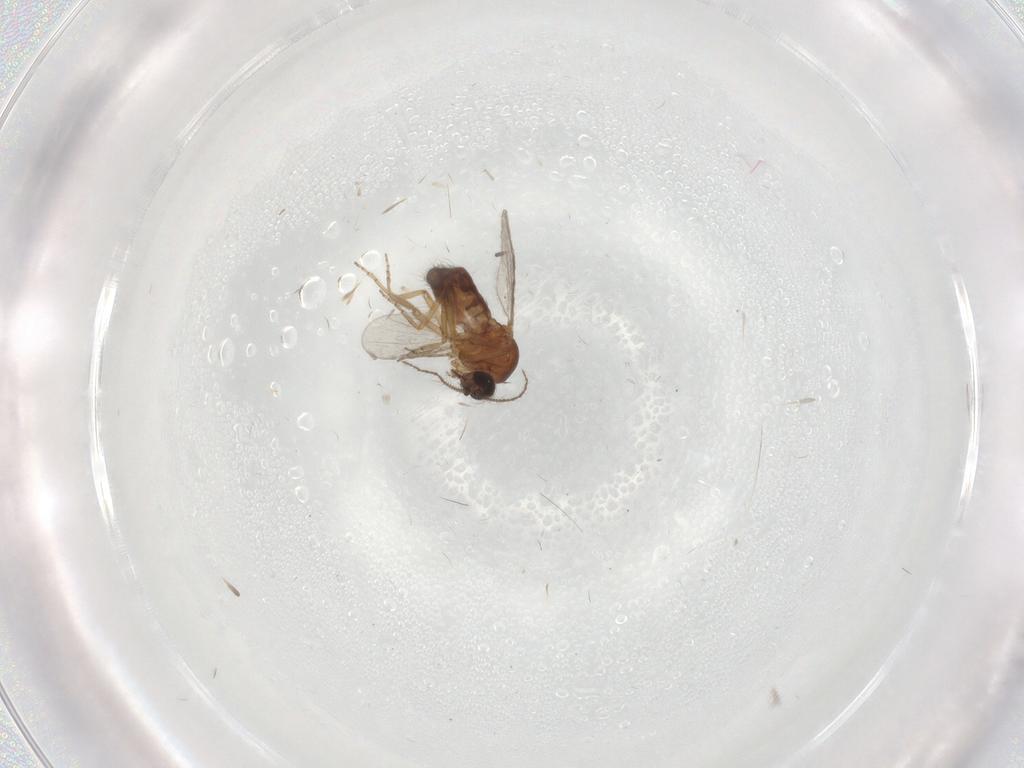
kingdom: Animalia
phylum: Arthropoda
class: Insecta
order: Diptera
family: Ceratopogonidae
